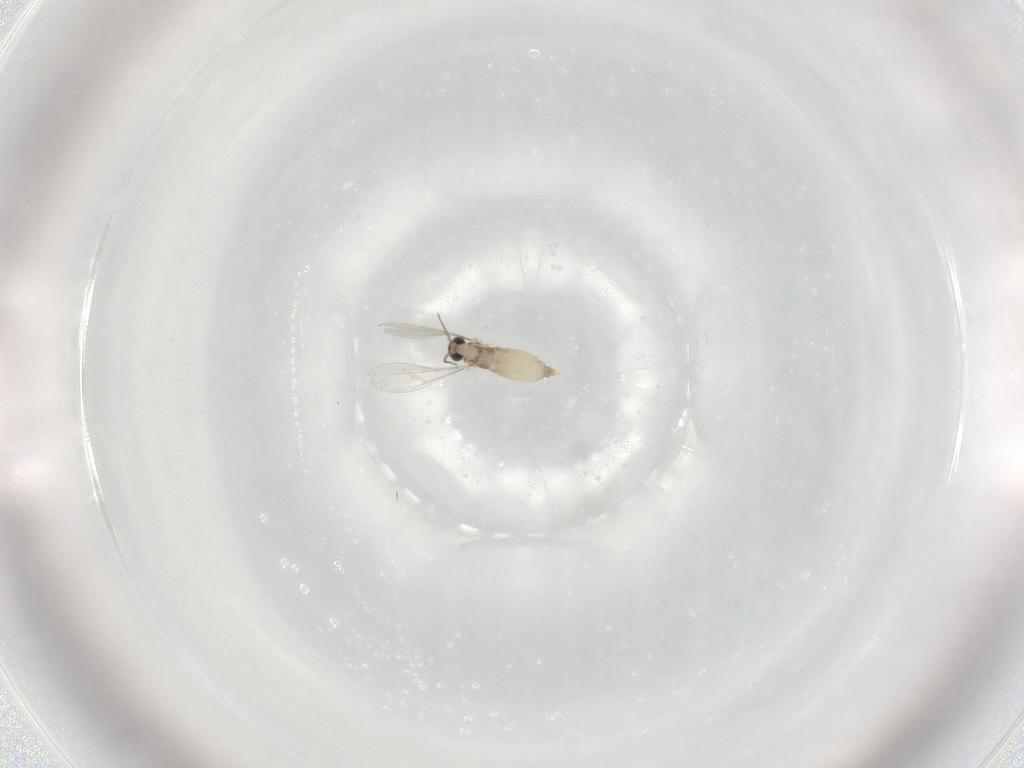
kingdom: Animalia
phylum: Arthropoda
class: Insecta
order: Diptera
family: Chironomidae
